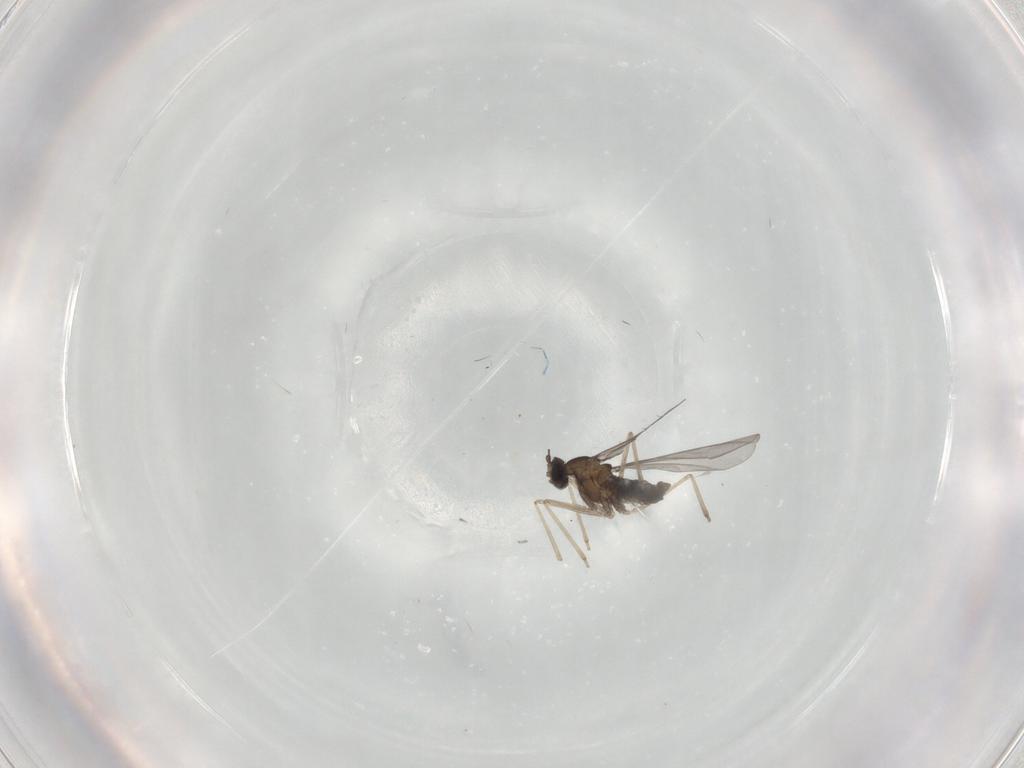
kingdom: Animalia
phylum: Arthropoda
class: Insecta
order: Diptera
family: Cecidomyiidae
